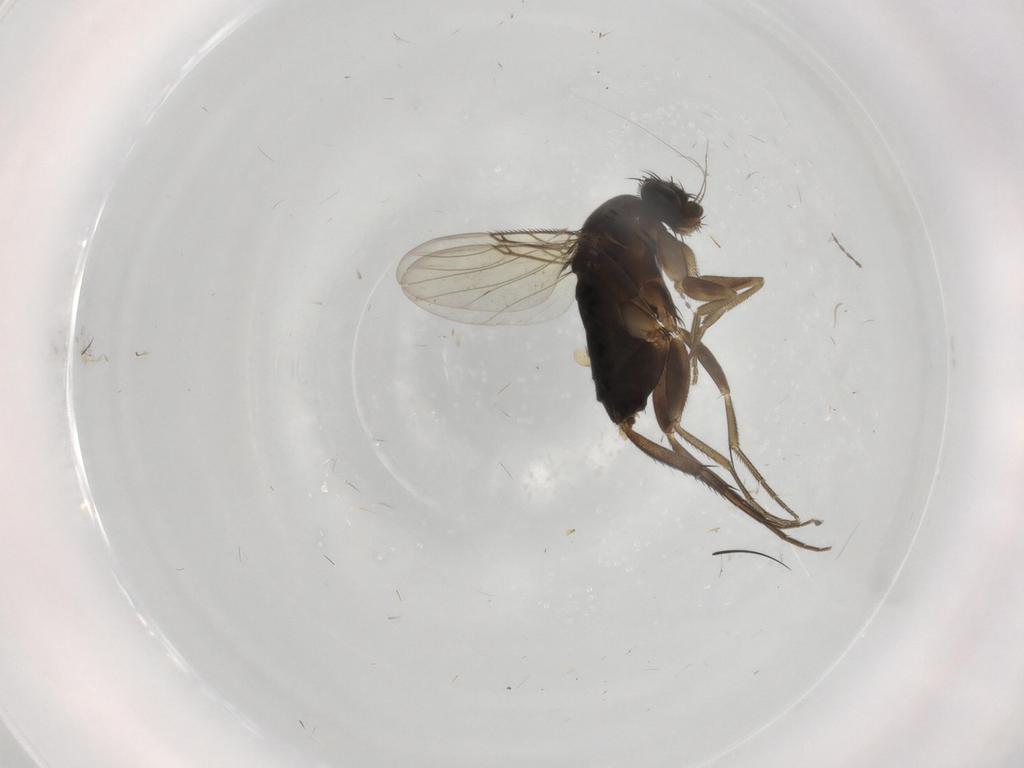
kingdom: Animalia
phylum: Arthropoda
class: Insecta
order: Diptera
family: Phoridae
